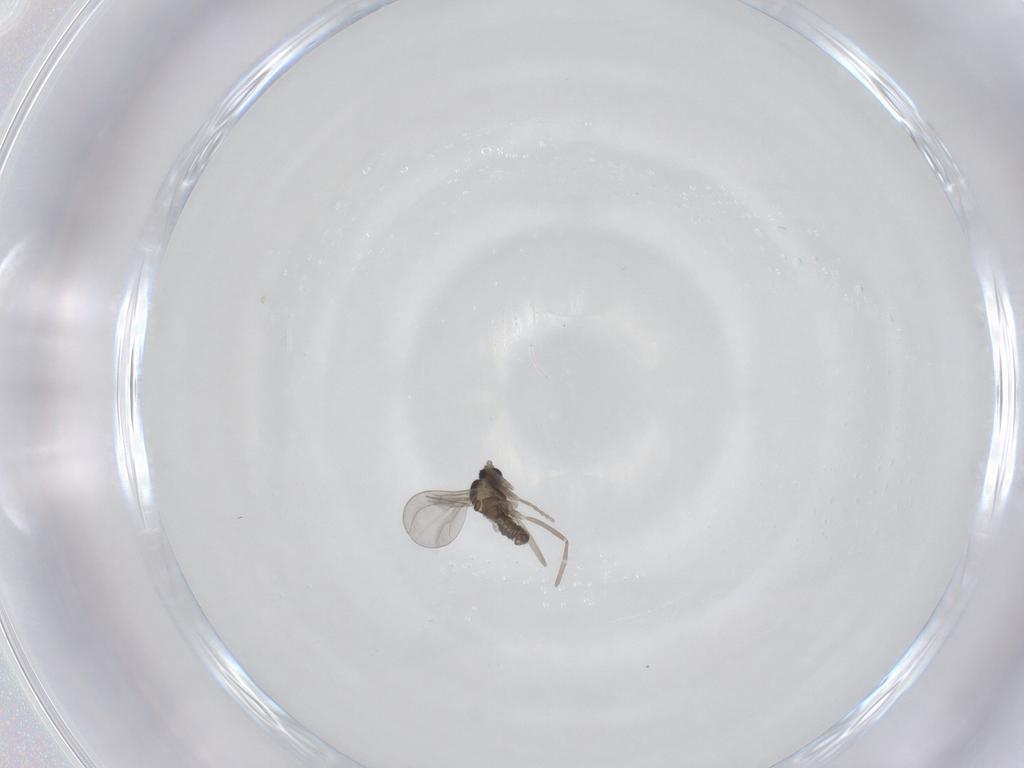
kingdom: Animalia
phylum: Arthropoda
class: Insecta
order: Diptera
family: Cecidomyiidae
